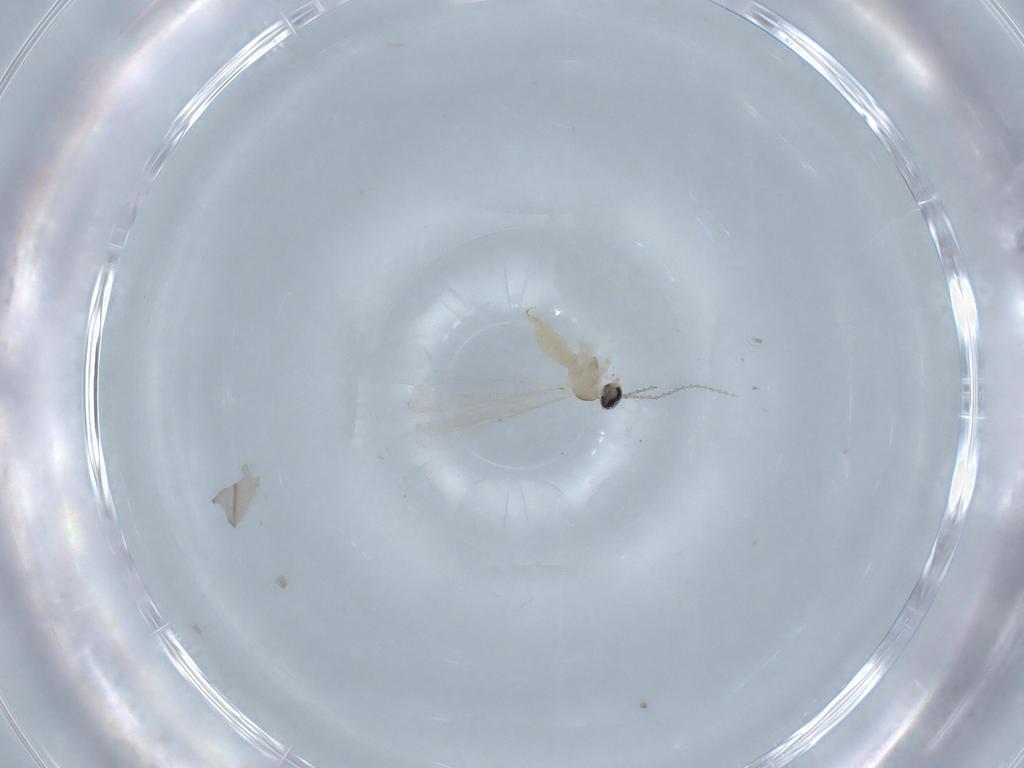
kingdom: Animalia
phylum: Arthropoda
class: Insecta
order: Diptera
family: Cecidomyiidae
